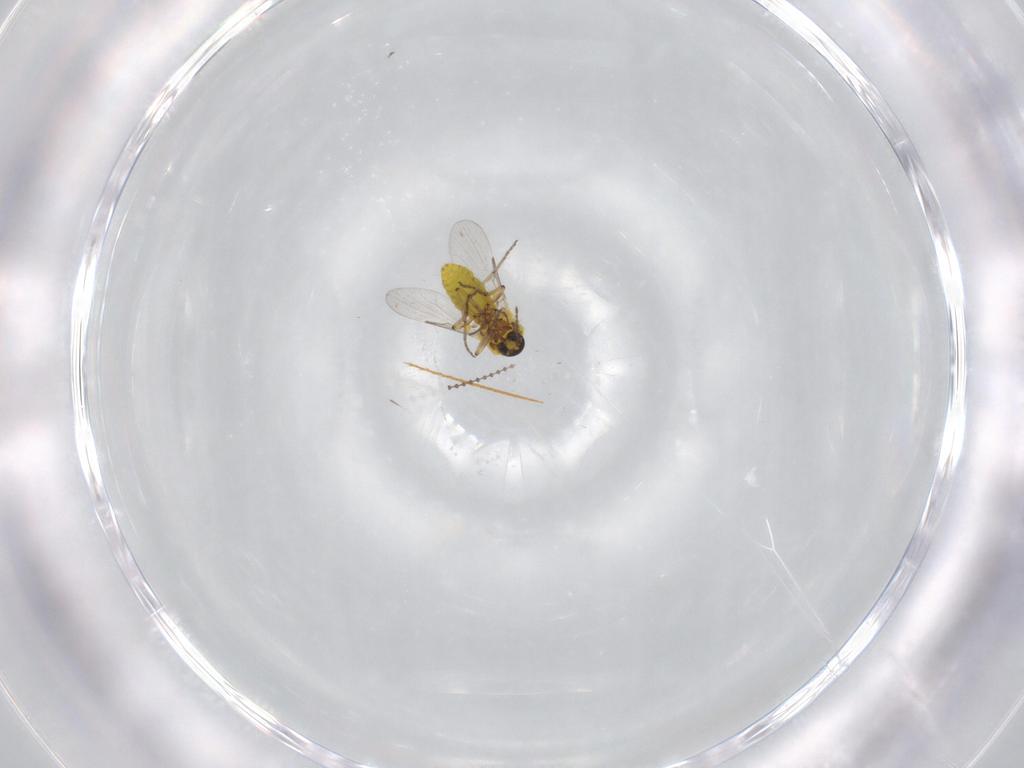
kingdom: Animalia
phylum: Arthropoda
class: Insecta
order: Diptera
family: Ceratopogonidae
